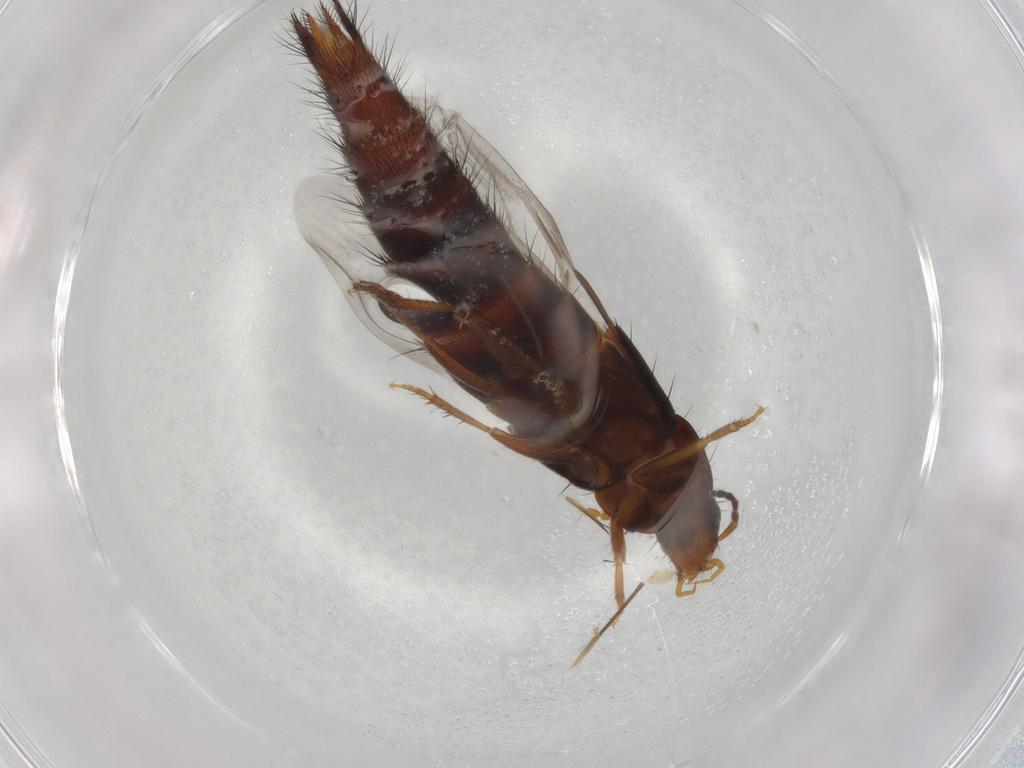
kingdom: Animalia
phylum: Arthropoda
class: Insecta
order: Coleoptera
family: Staphylinidae
